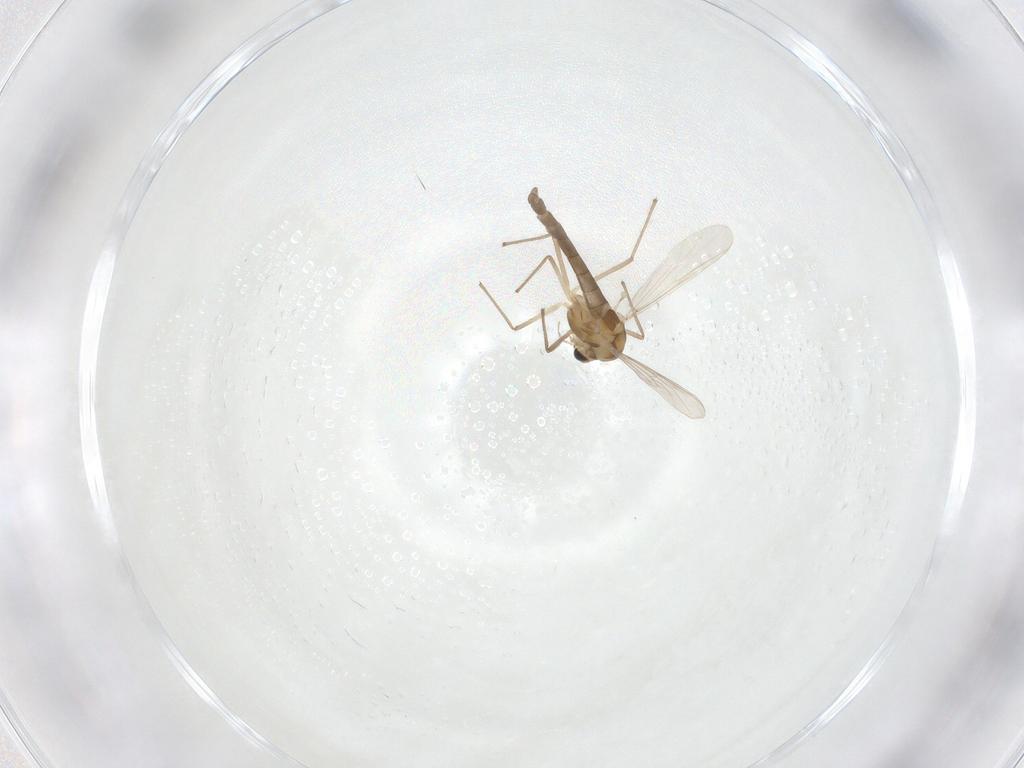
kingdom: Animalia
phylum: Arthropoda
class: Insecta
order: Diptera
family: Chironomidae
